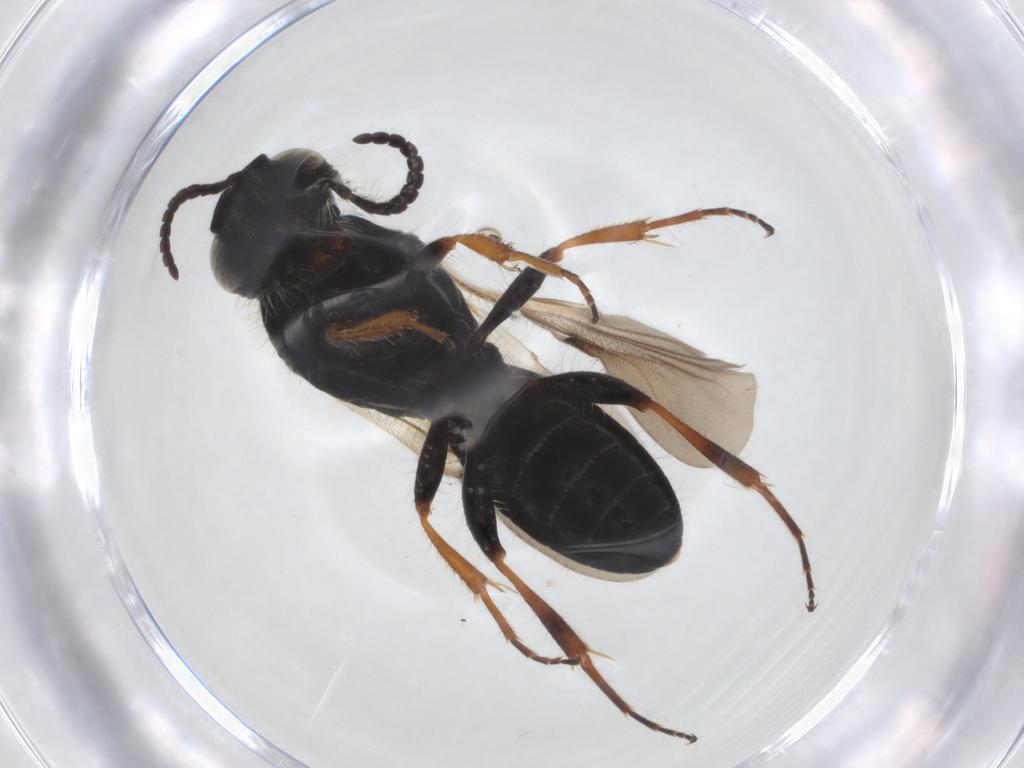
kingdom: Animalia
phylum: Arthropoda
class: Insecta
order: Hymenoptera
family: Sparasionidae
